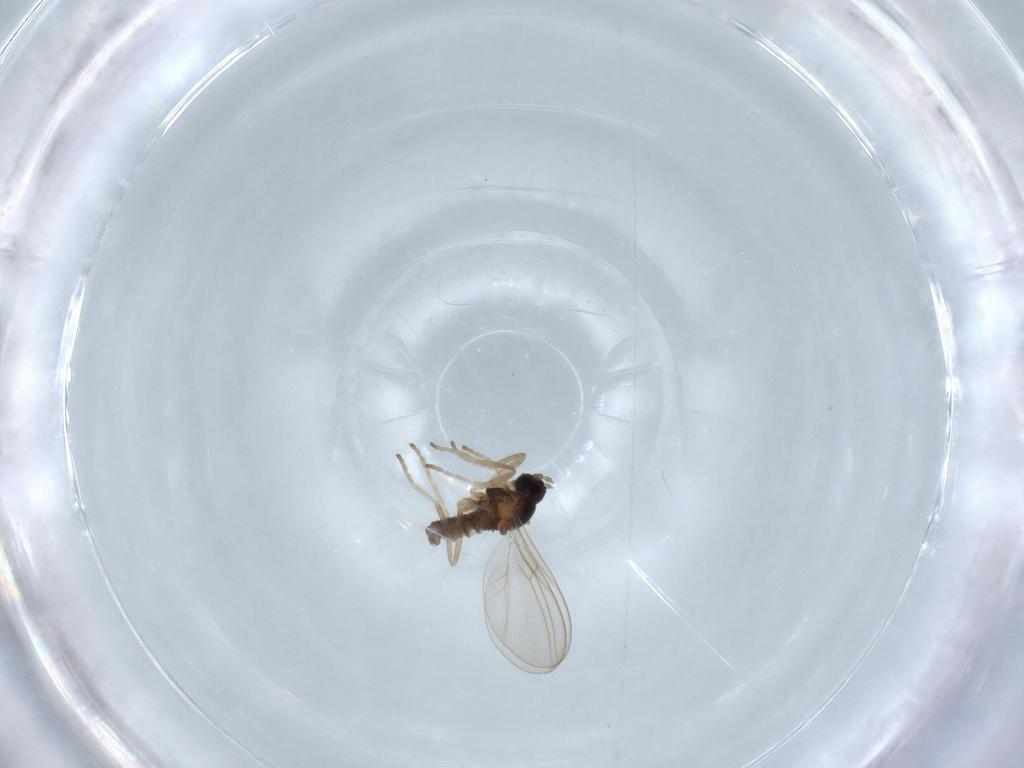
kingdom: Animalia
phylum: Arthropoda
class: Insecta
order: Diptera
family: Cecidomyiidae
